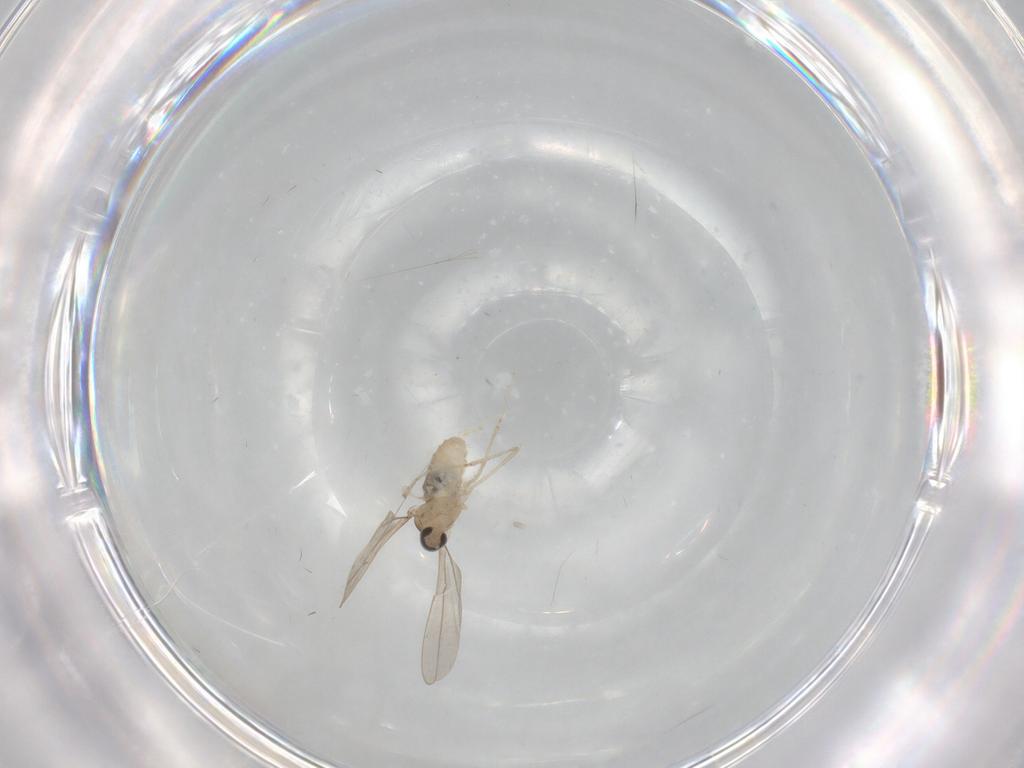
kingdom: Animalia
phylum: Arthropoda
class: Insecta
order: Diptera
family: Cecidomyiidae
